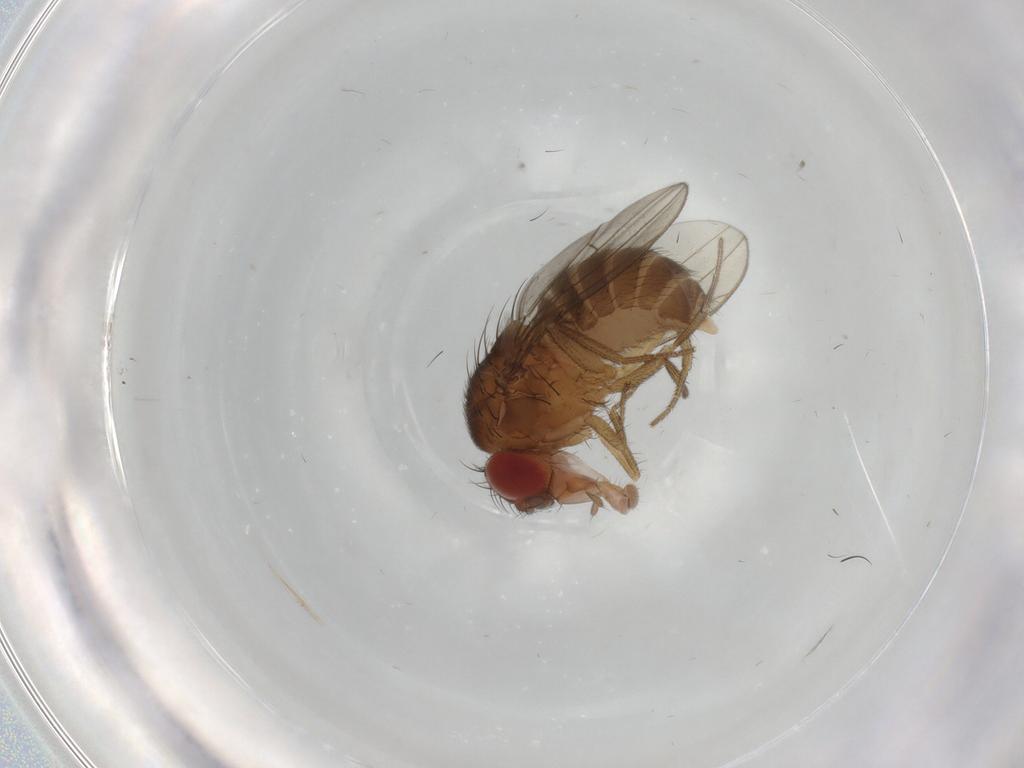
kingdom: Animalia
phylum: Arthropoda
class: Insecta
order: Diptera
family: Drosophilidae
